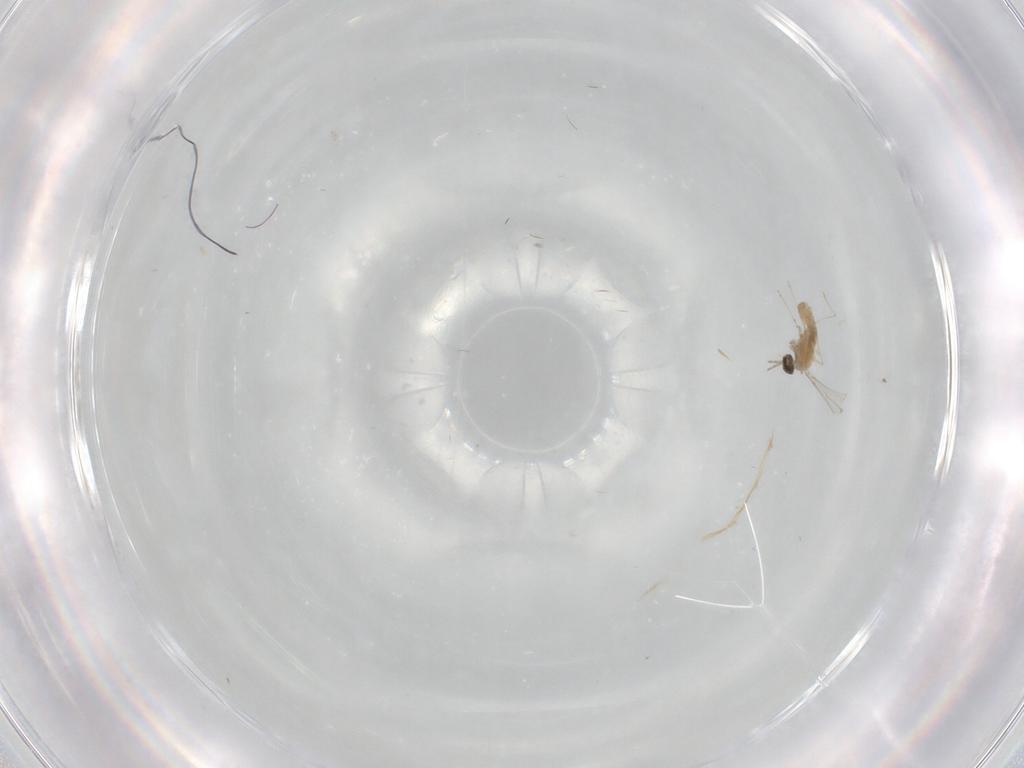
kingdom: Animalia
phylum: Arthropoda
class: Insecta
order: Diptera
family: Cecidomyiidae
